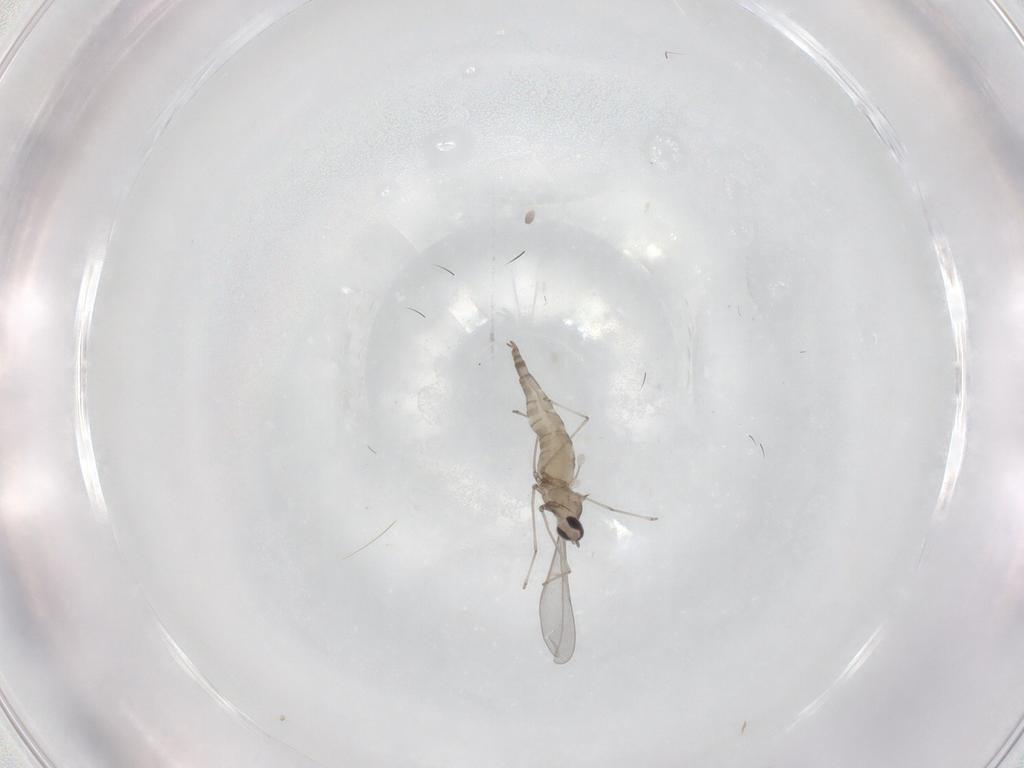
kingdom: Animalia
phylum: Arthropoda
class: Insecta
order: Diptera
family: Cecidomyiidae
